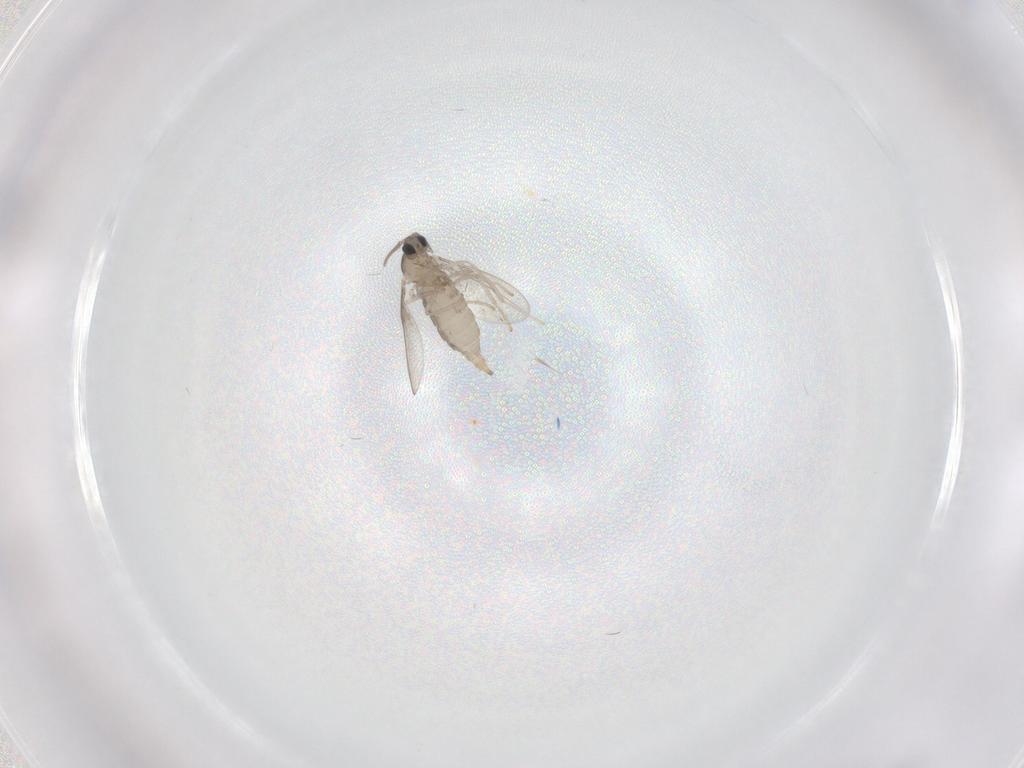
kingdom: Animalia
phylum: Arthropoda
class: Insecta
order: Diptera
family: Cecidomyiidae
